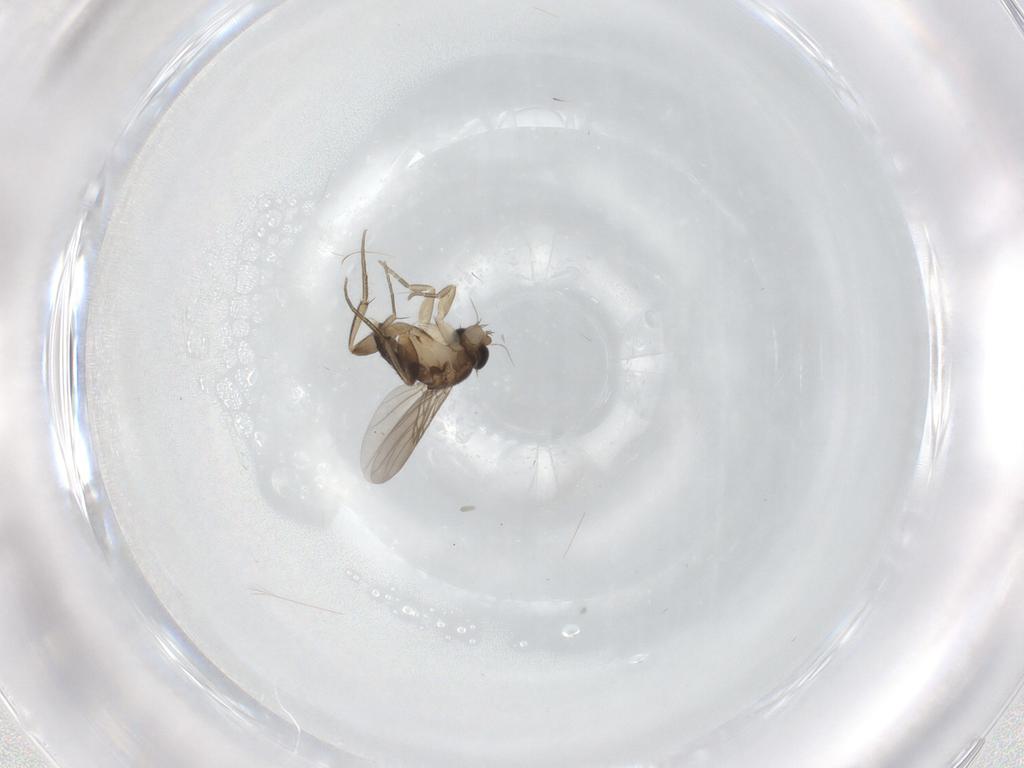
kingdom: Animalia
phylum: Arthropoda
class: Insecta
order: Diptera
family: Phoridae
